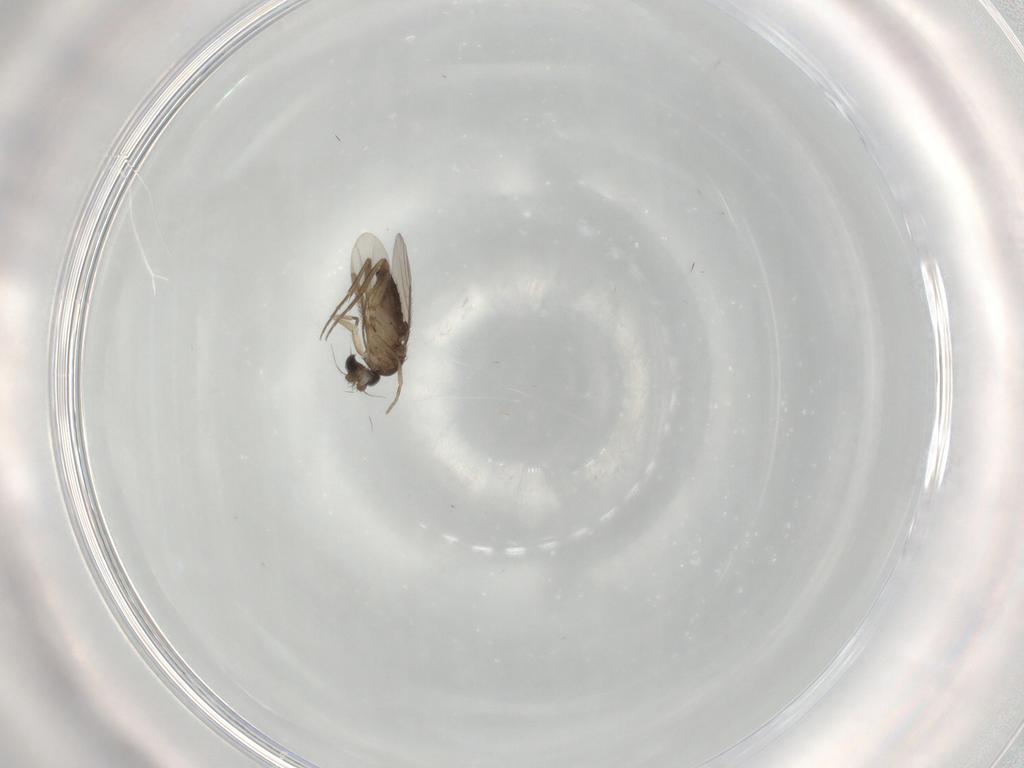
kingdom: Animalia
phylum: Arthropoda
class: Insecta
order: Diptera
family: Phoridae
